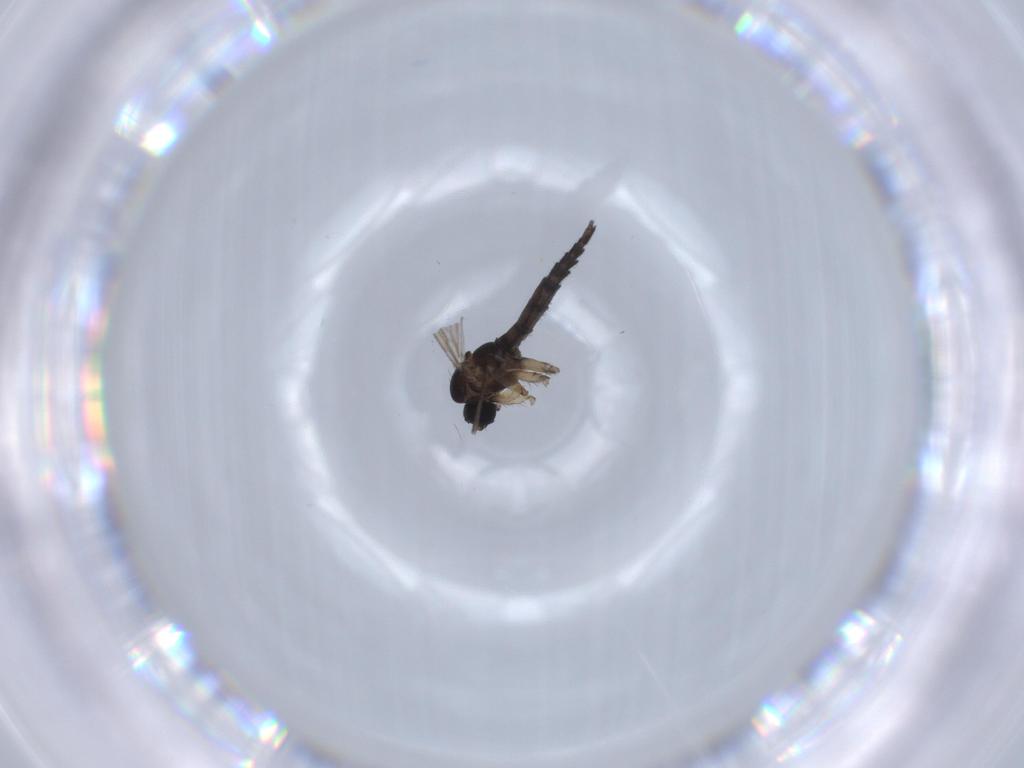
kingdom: Animalia
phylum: Arthropoda
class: Insecta
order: Diptera
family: Sciaridae
